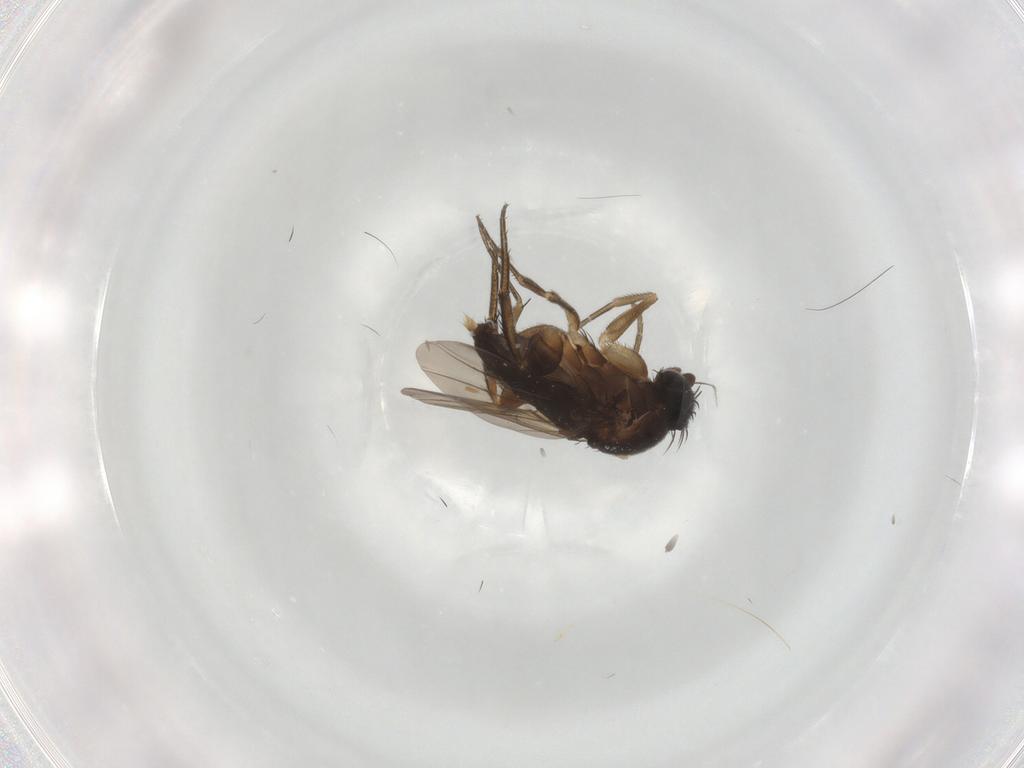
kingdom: Animalia
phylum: Arthropoda
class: Insecta
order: Diptera
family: Phoridae
